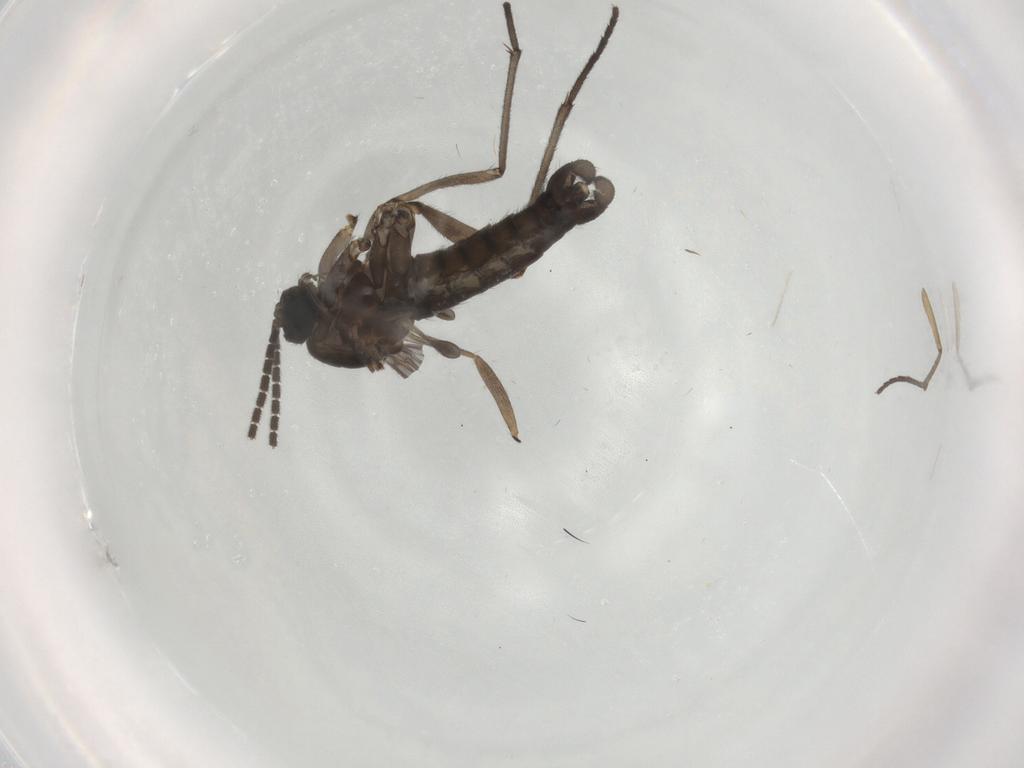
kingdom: Animalia
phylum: Arthropoda
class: Insecta
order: Diptera
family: Sciaridae
